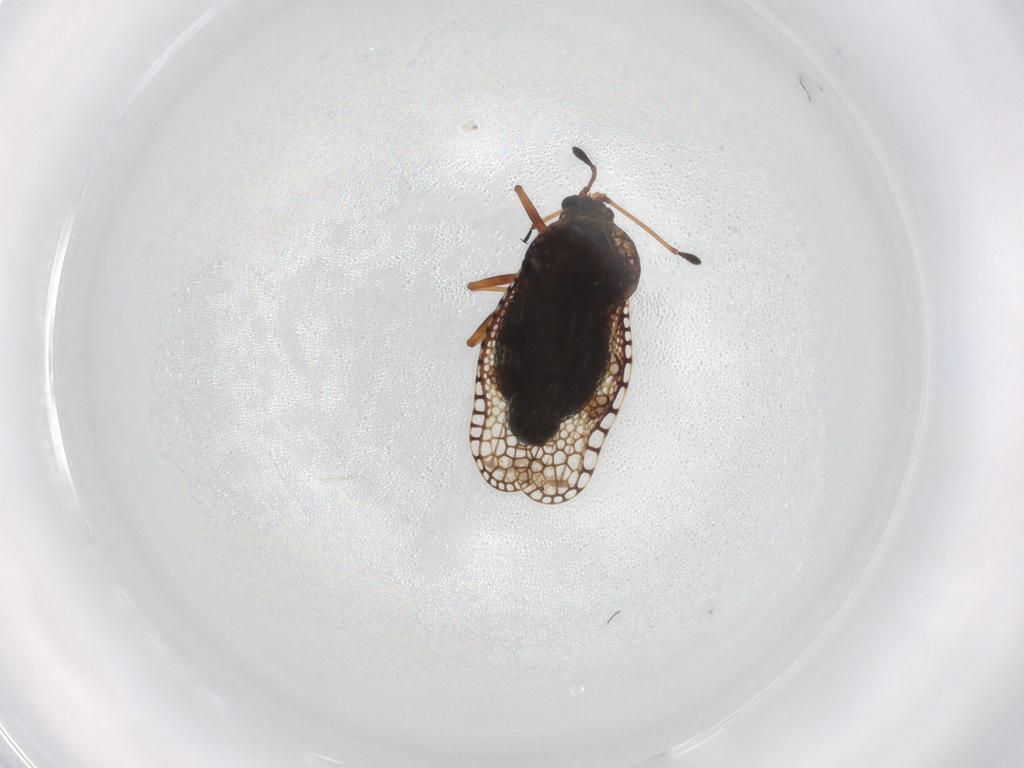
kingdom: Animalia
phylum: Arthropoda
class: Insecta
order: Hemiptera
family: Tingidae
